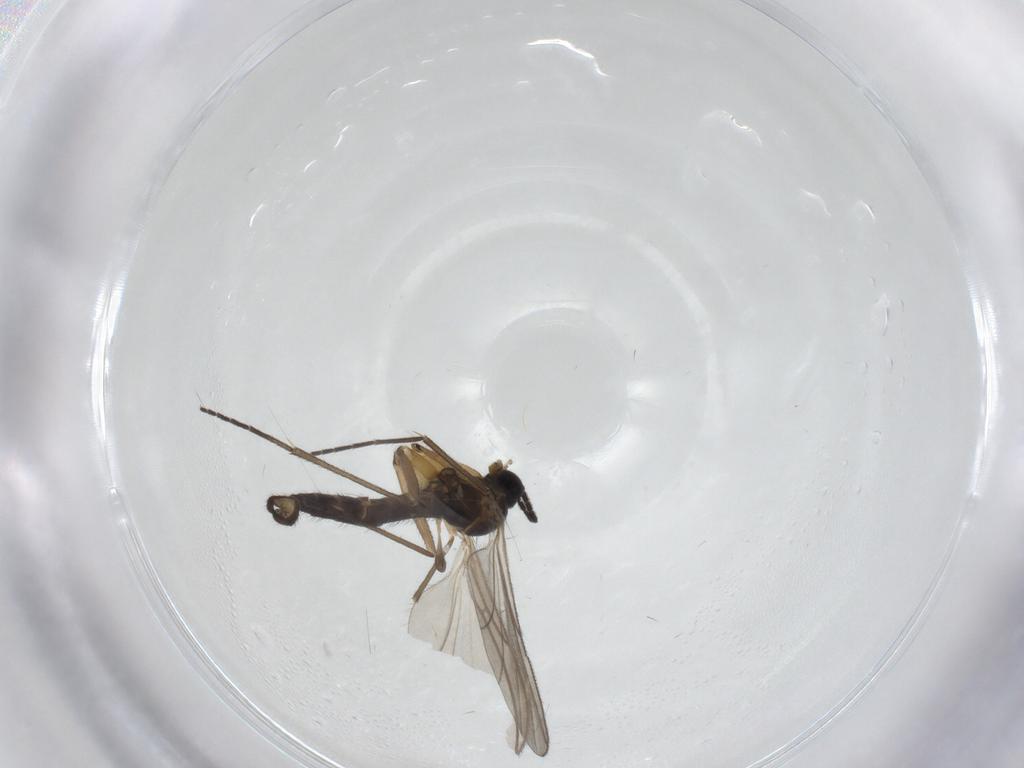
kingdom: Animalia
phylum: Arthropoda
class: Insecta
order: Diptera
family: Sciaridae
